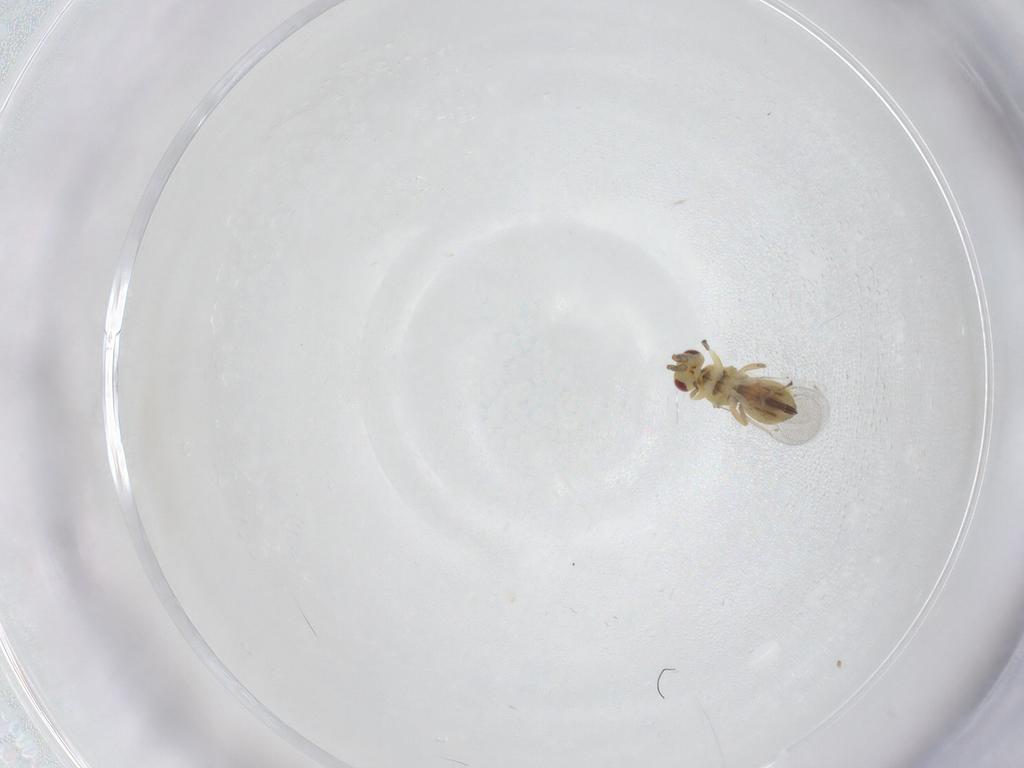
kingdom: Animalia
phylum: Arthropoda
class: Insecta
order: Hymenoptera
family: Eulophidae
